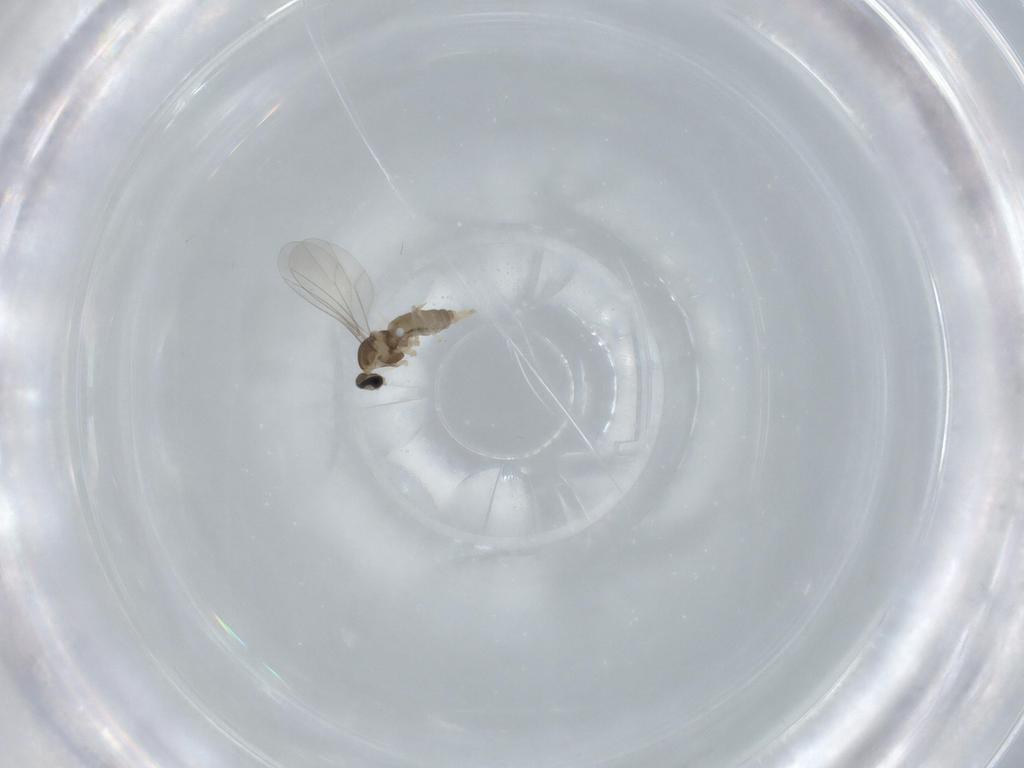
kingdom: Animalia
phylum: Arthropoda
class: Insecta
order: Diptera
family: Cecidomyiidae
